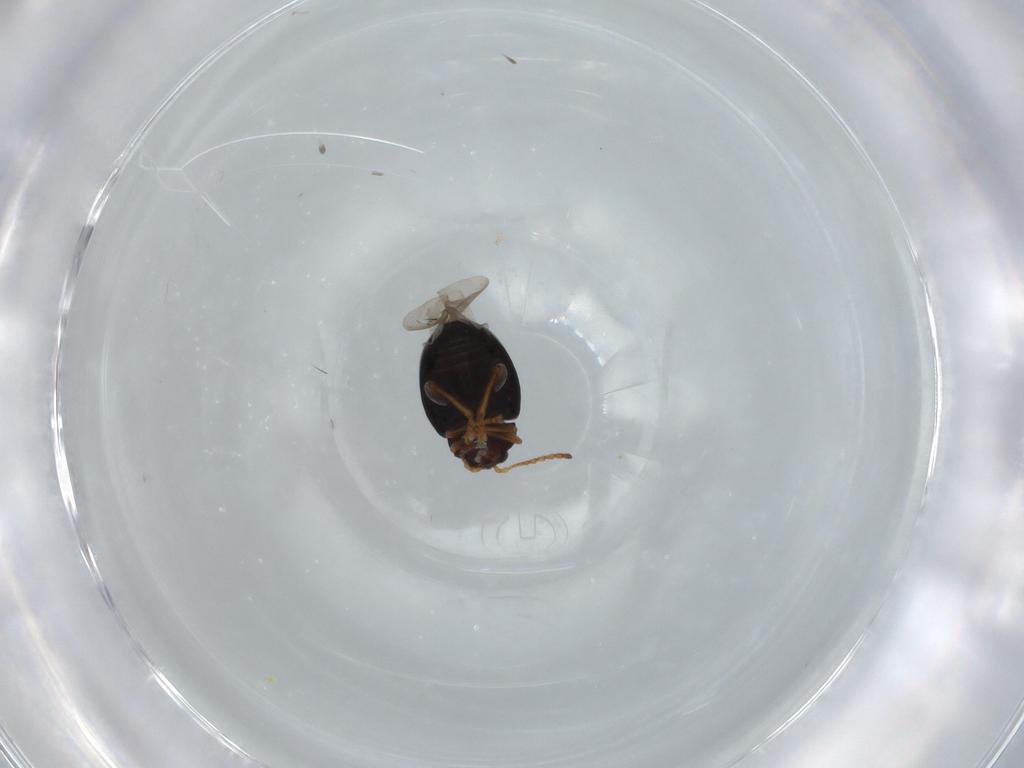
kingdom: Animalia
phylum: Arthropoda
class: Insecta
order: Coleoptera
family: Chrysomelidae
